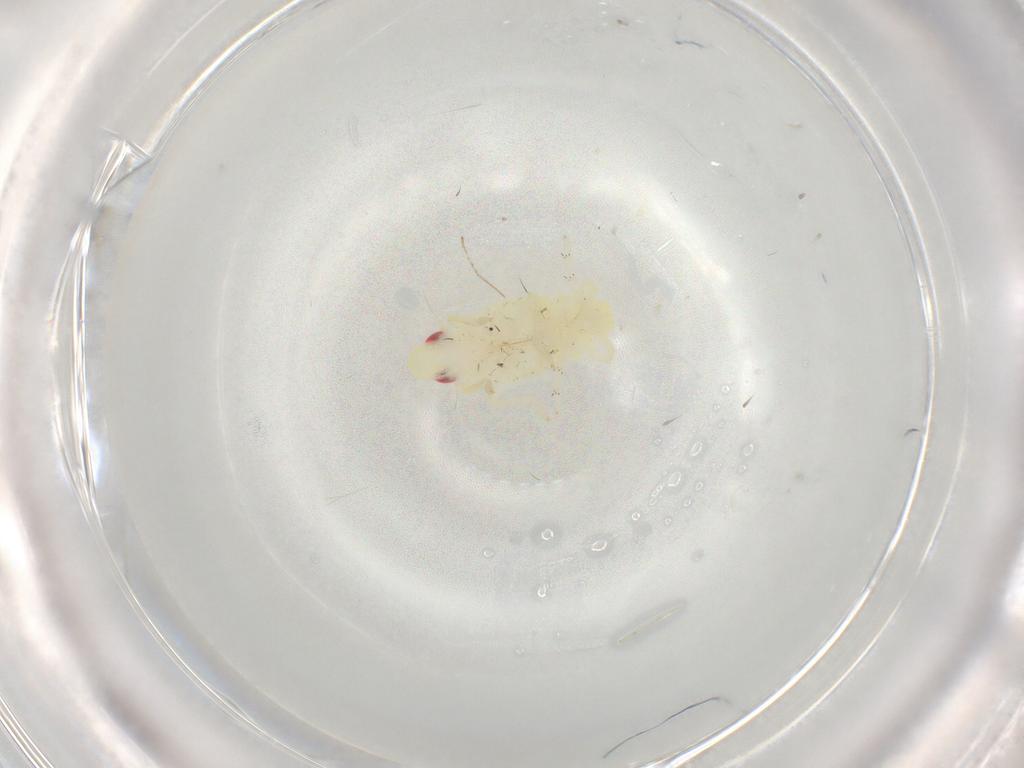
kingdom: Animalia
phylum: Arthropoda
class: Insecta
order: Hemiptera
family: Tropiduchidae
